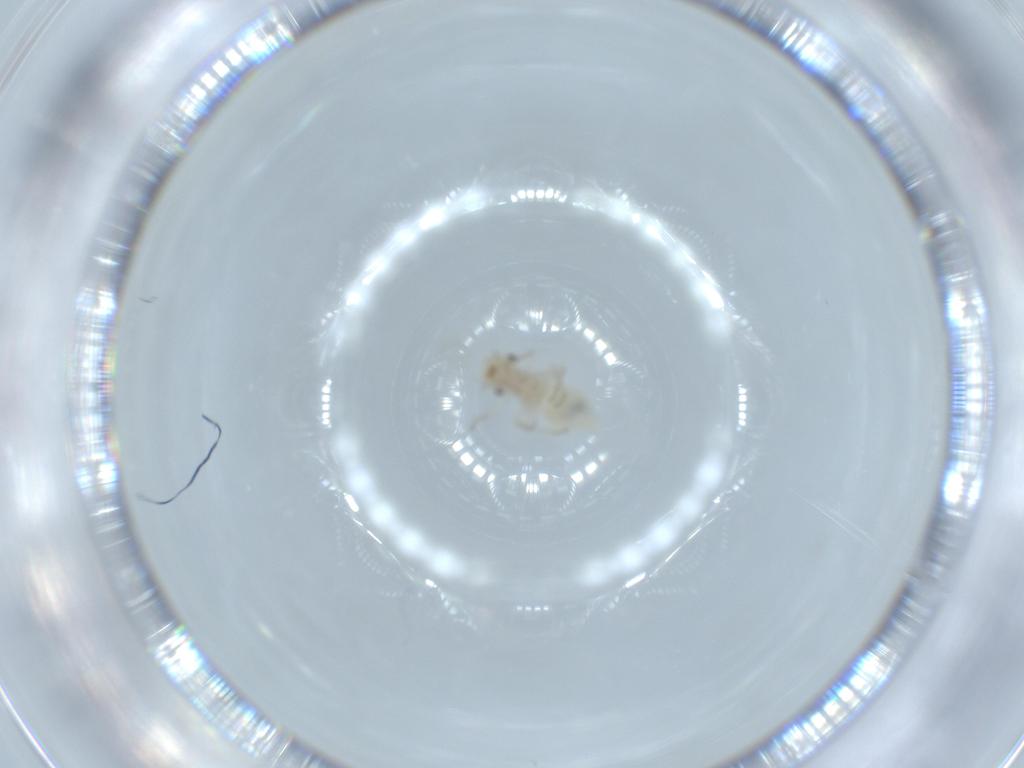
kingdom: Animalia
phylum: Arthropoda
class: Insecta
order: Psocodea
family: Lachesillidae
